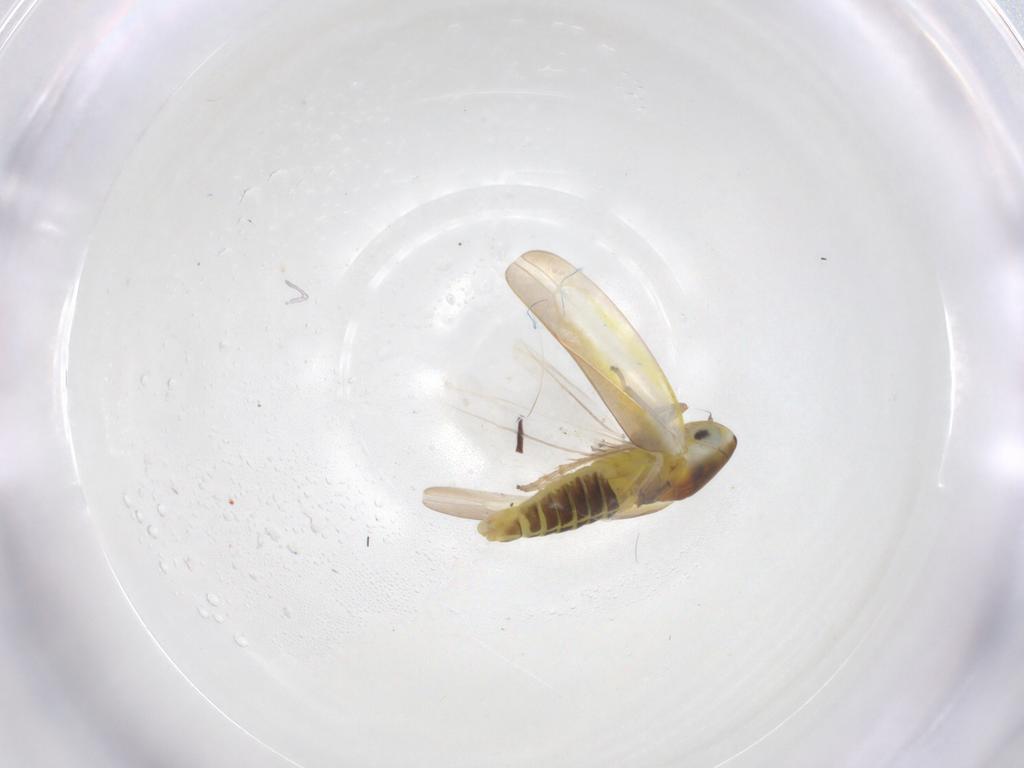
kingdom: Animalia
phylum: Arthropoda
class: Insecta
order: Hemiptera
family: Cicadellidae
